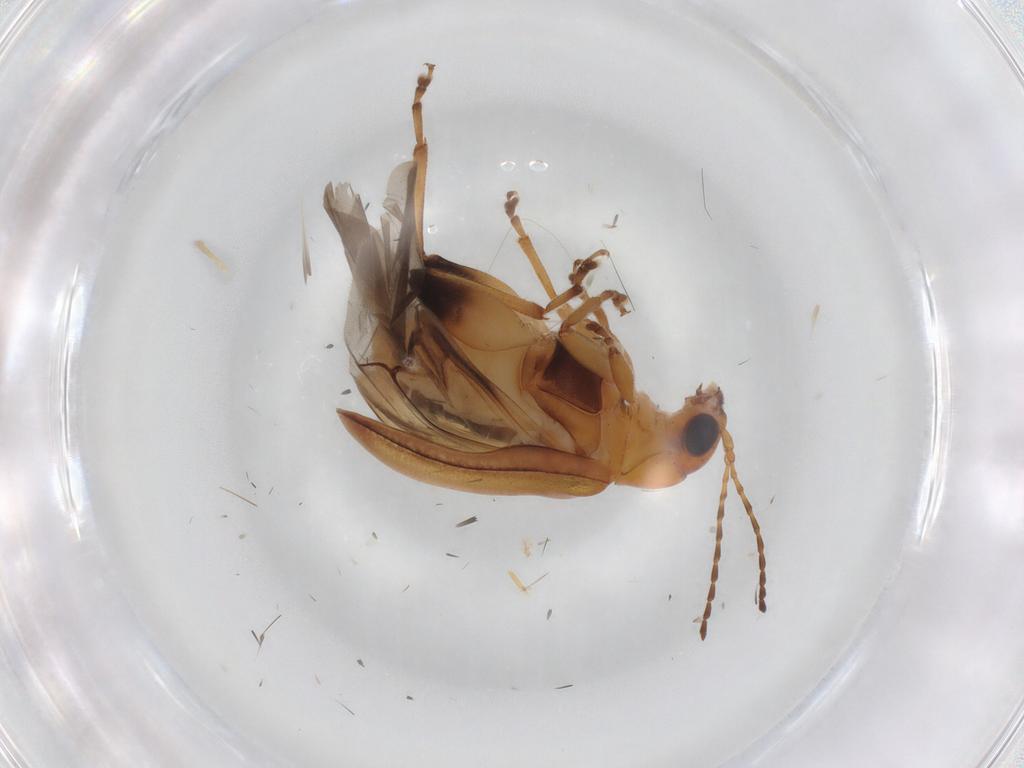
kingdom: Animalia
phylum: Arthropoda
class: Insecta
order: Coleoptera
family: Chrysomelidae
